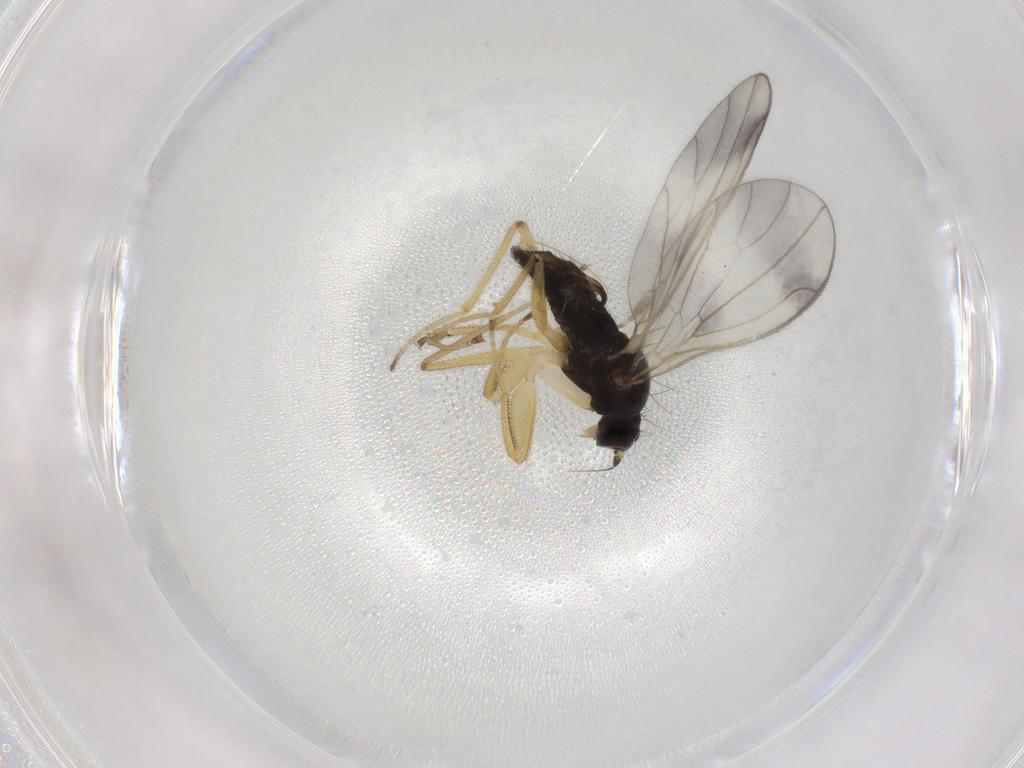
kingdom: Animalia
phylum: Arthropoda
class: Insecta
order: Diptera
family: Chironomidae
